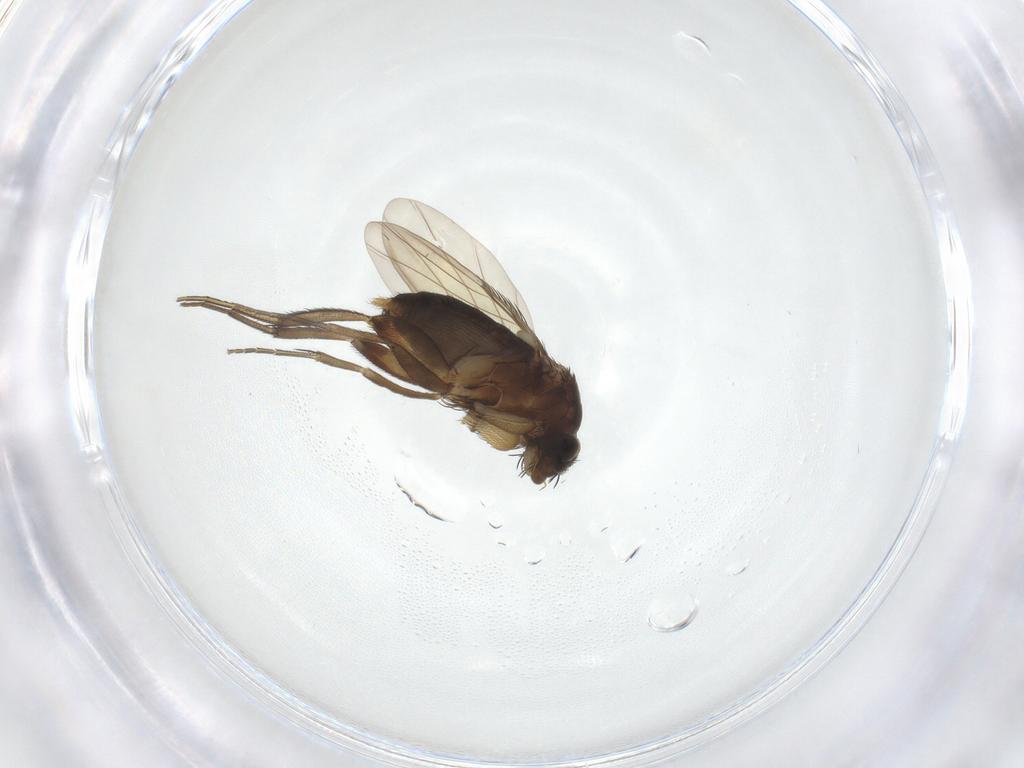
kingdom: Animalia
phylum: Arthropoda
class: Insecta
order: Diptera
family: Phoridae
